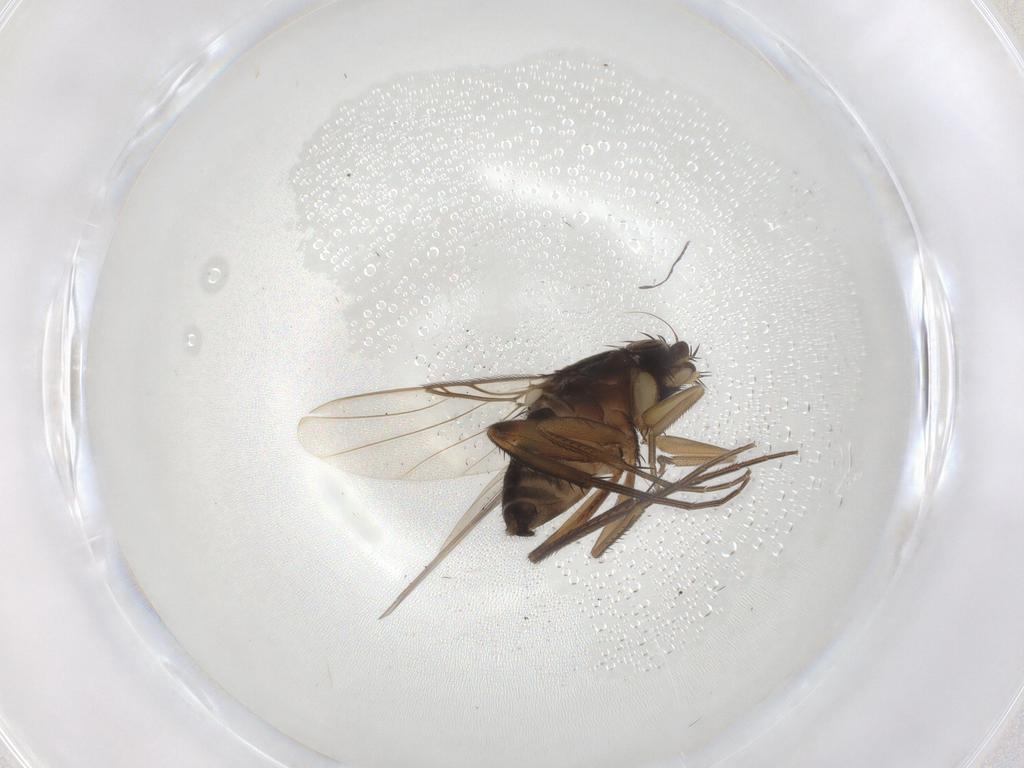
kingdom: Animalia
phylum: Arthropoda
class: Insecta
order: Diptera
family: Phoridae
